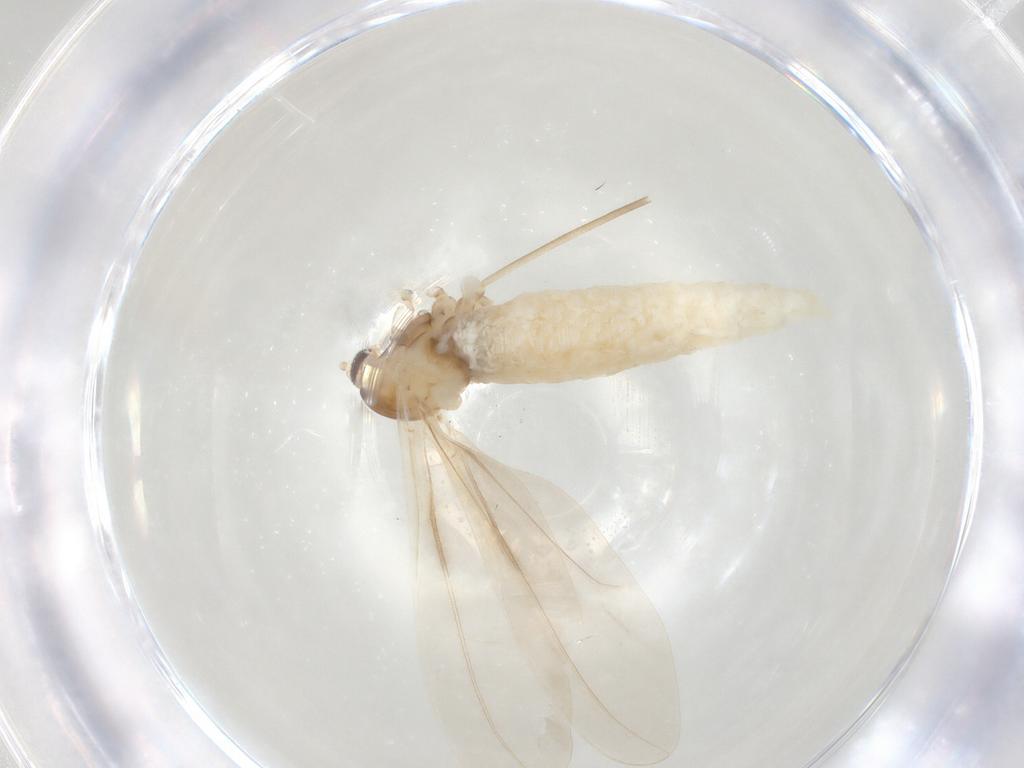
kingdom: Animalia
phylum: Arthropoda
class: Insecta
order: Diptera
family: Cecidomyiidae
